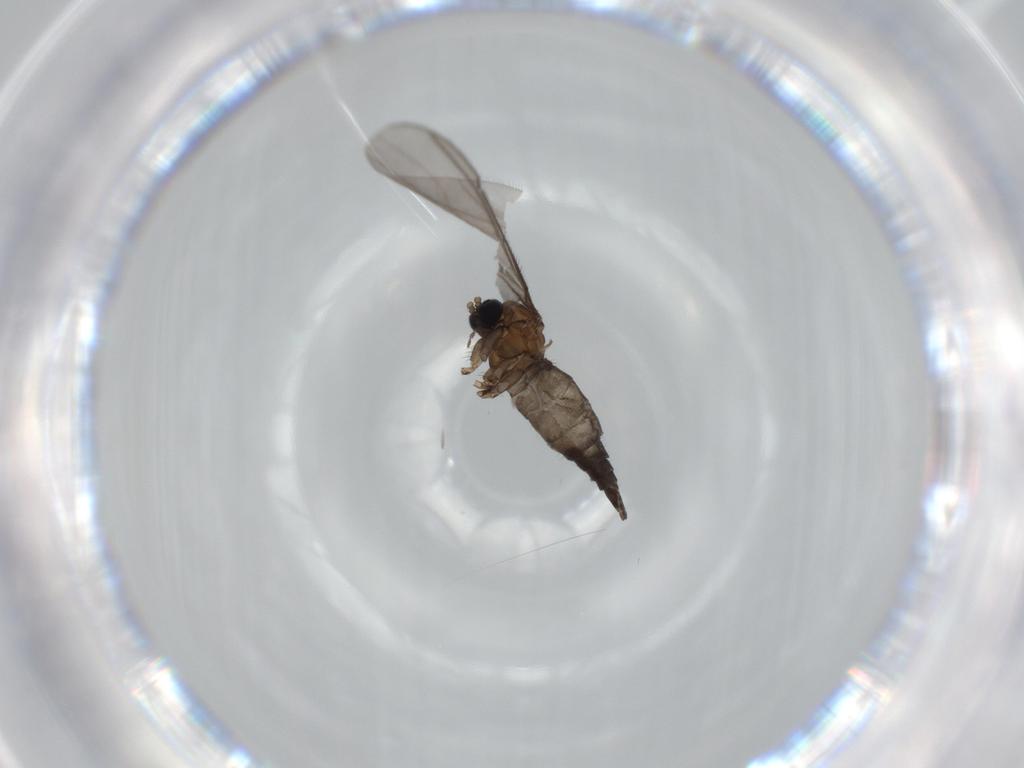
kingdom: Animalia
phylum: Arthropoda
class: Insecta
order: Diptera
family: Sciaridae
